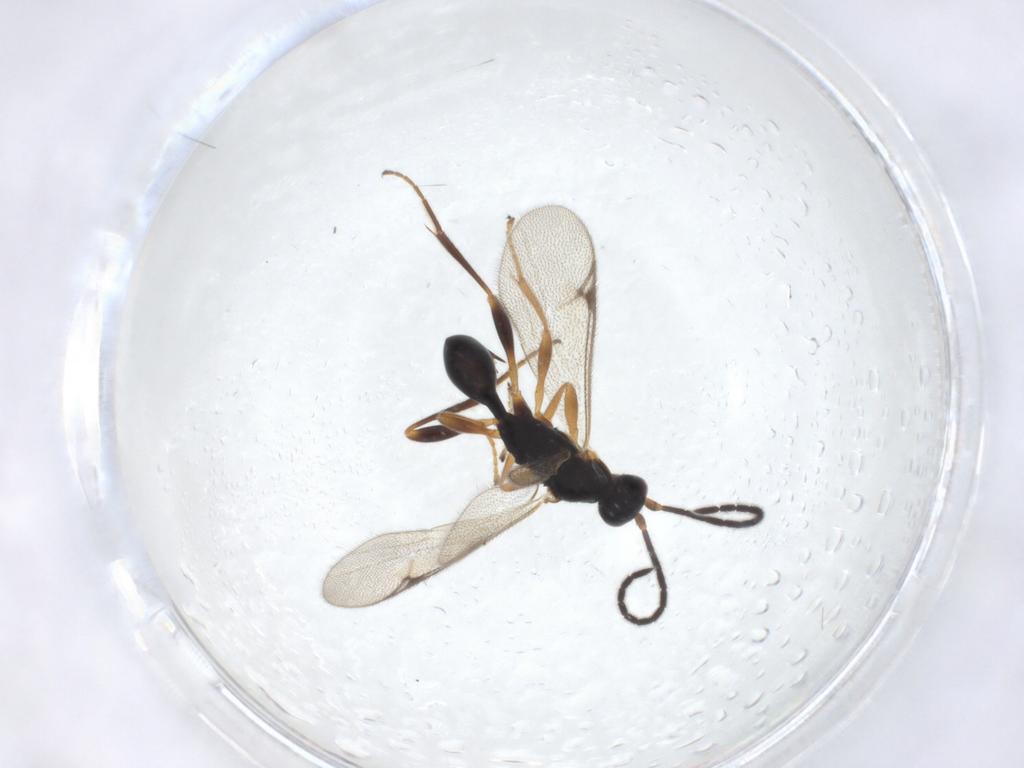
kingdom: Animalia
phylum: Arthropoda
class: Insecta
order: Hymenoptera
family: Proctotrupidae
